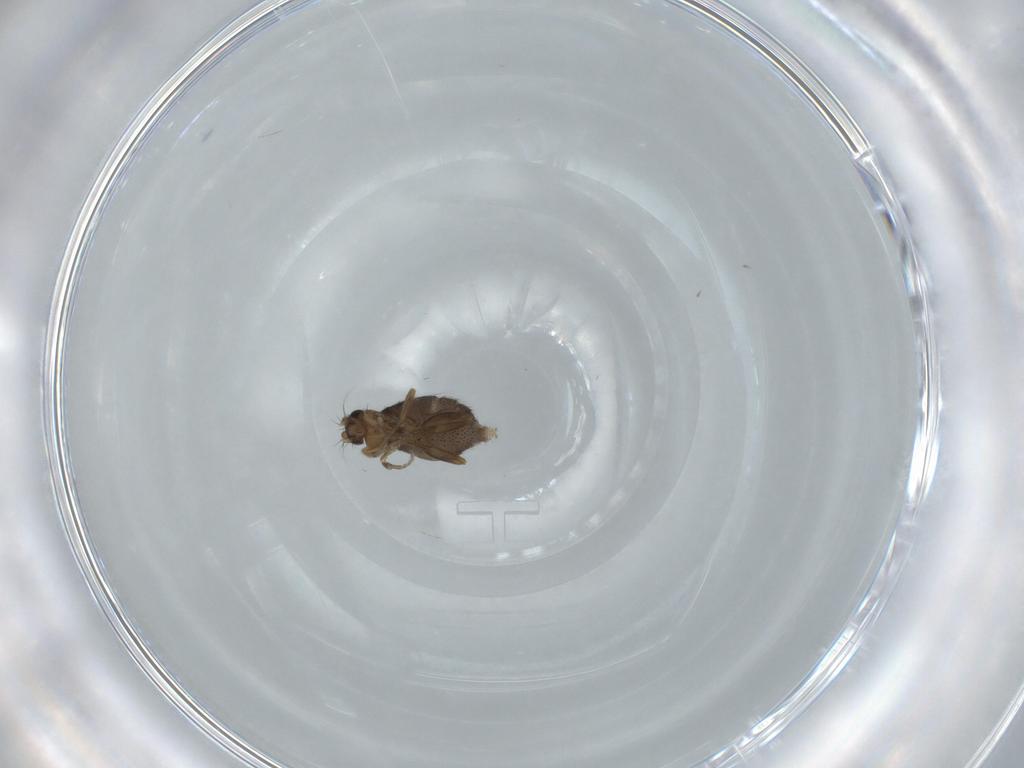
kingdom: Animalia
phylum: Arthropoda
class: Insecta
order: Diptera
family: Phoridae
